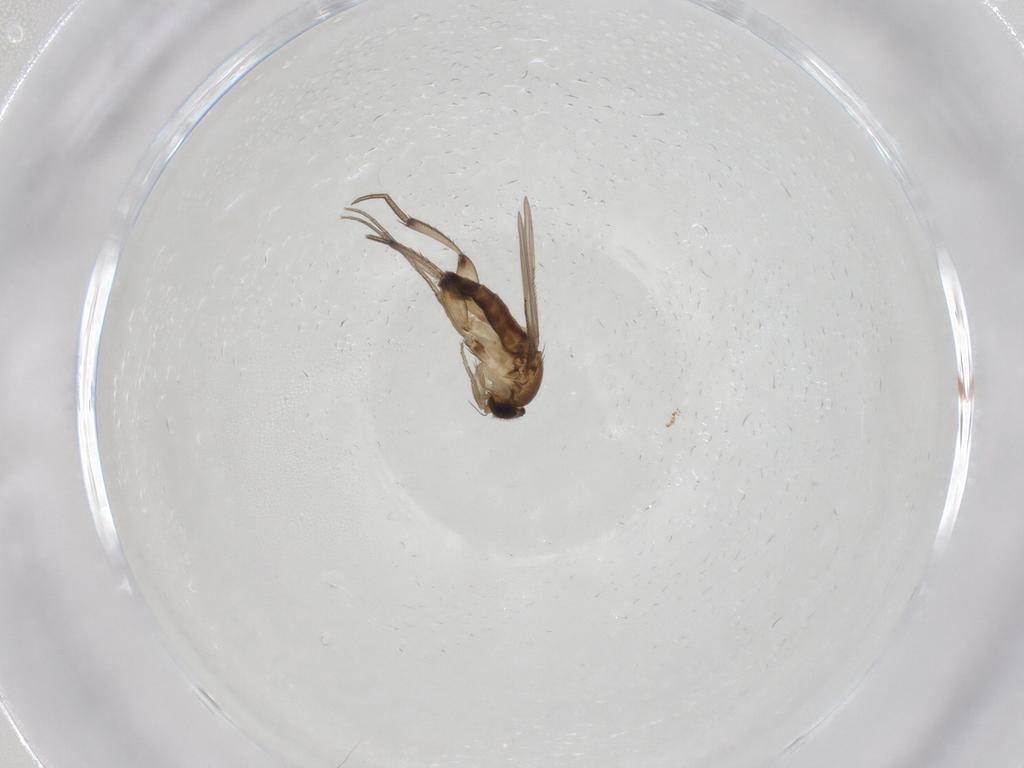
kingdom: Animalia
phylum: Arthropoda
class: Insecta
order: Diptera
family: Phoridae
